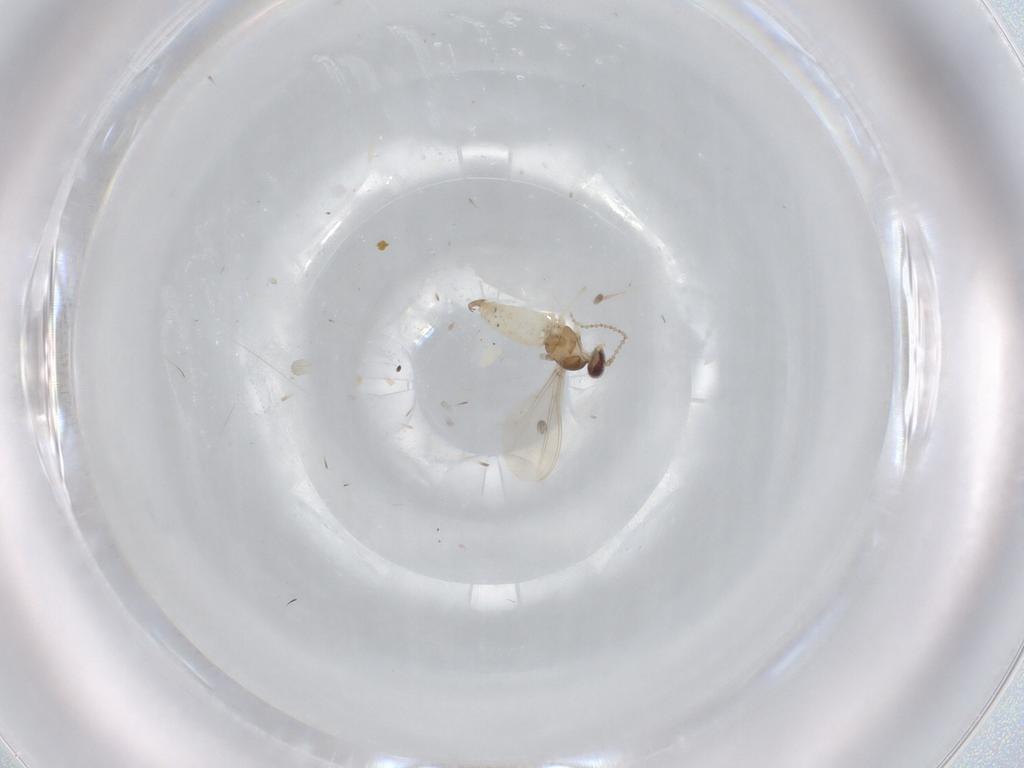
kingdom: Animalia
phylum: Arthropoda
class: Insecta
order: Diptera
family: Cecidomyiidae
